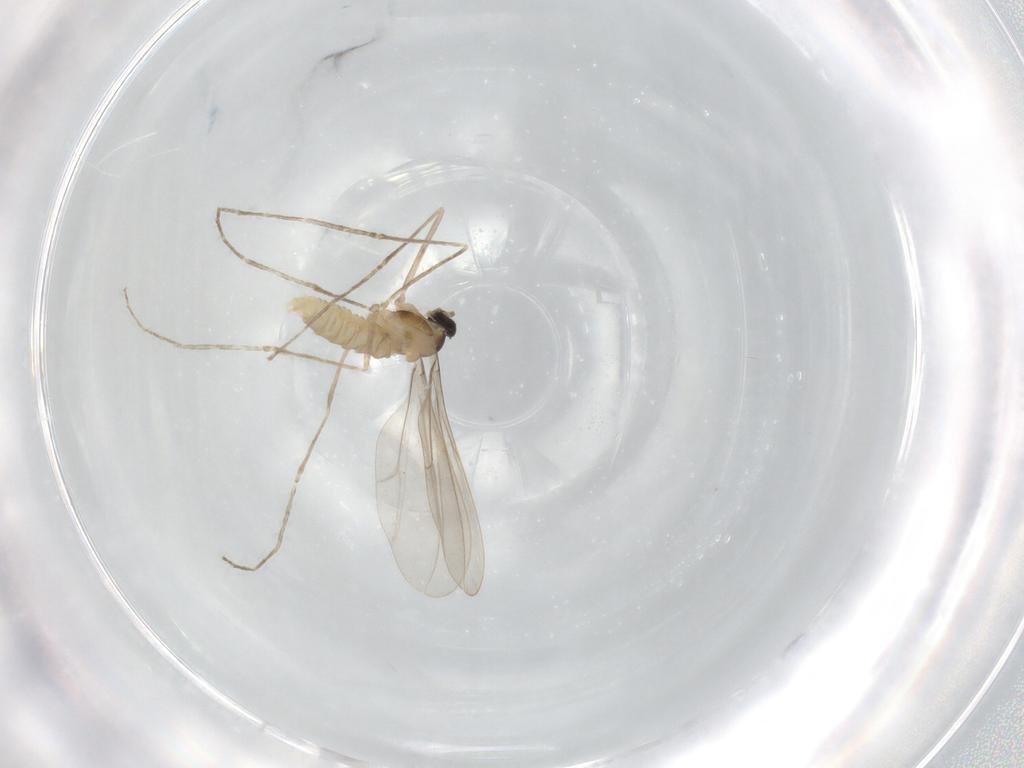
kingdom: Animalia
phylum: Arthropoda
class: Insecta
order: Diptera
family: Cecidomyiidae
